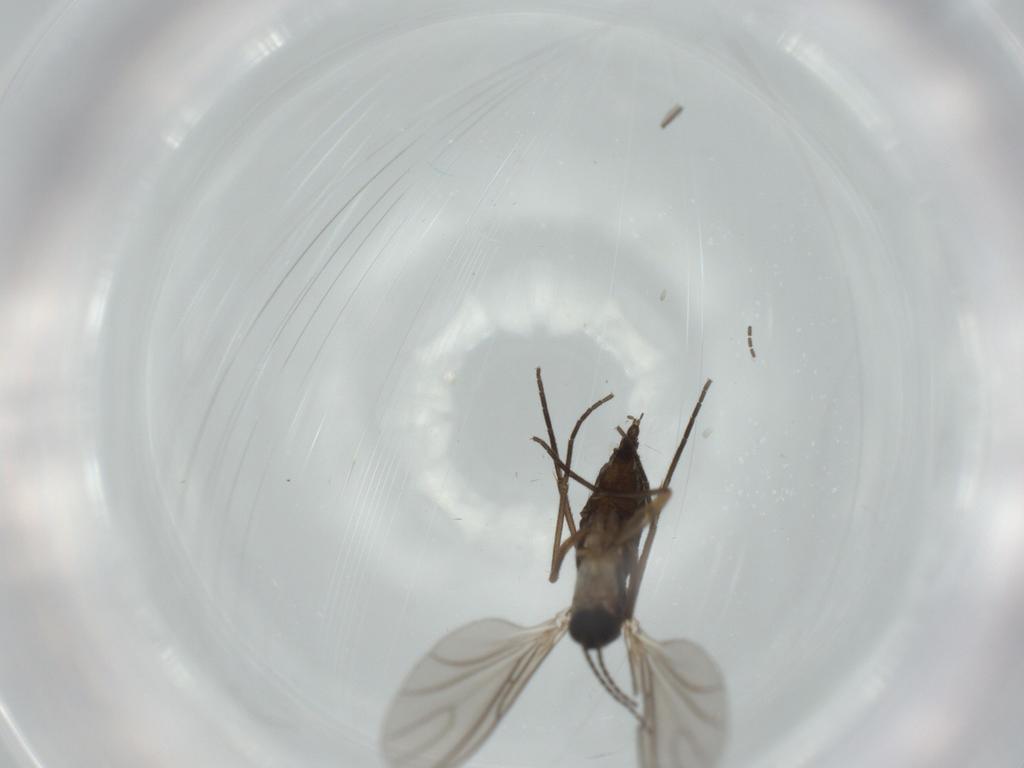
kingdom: Animalia
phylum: Arthropoda
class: Insecta
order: Diptera
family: Sciaridae
